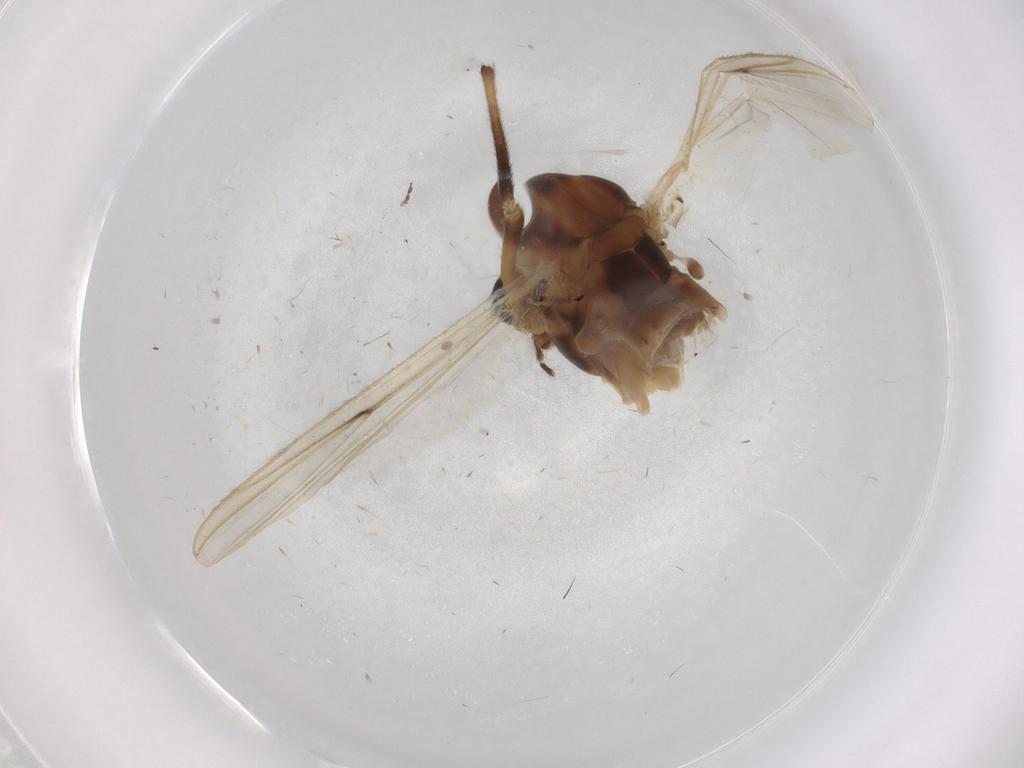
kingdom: Animalia
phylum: Arthropoda
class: Insecta
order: Diptera
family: Chironomidae
